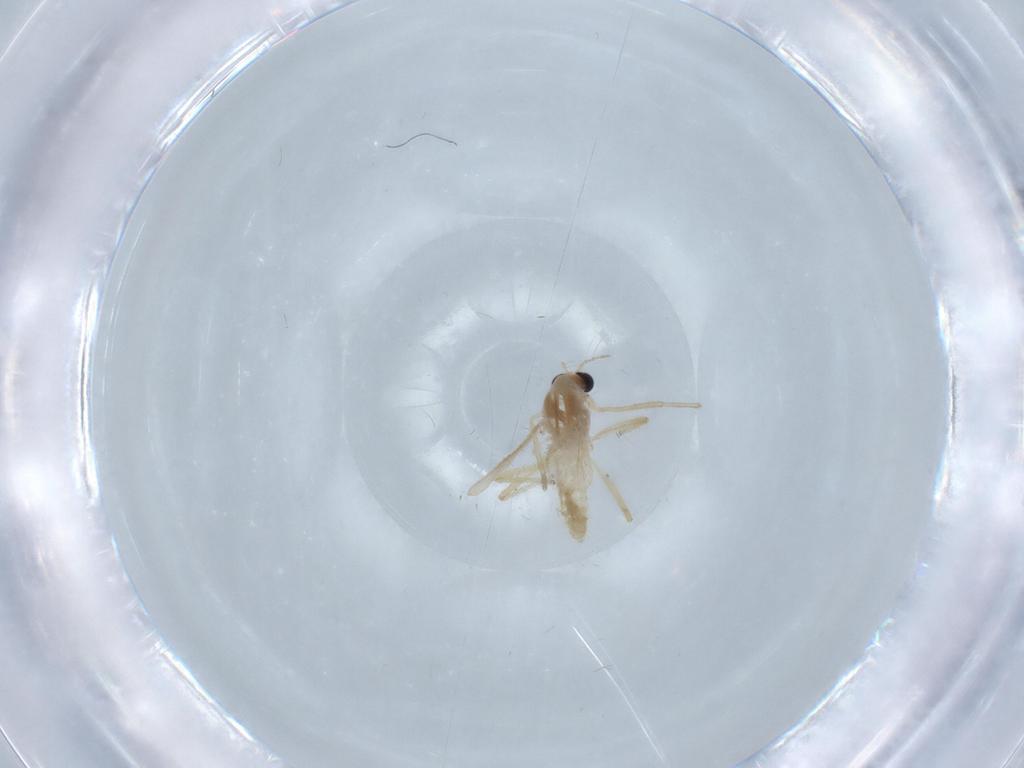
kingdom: Animalia
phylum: Arthropoda
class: Insecta
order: Diptera
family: Chironomidae
